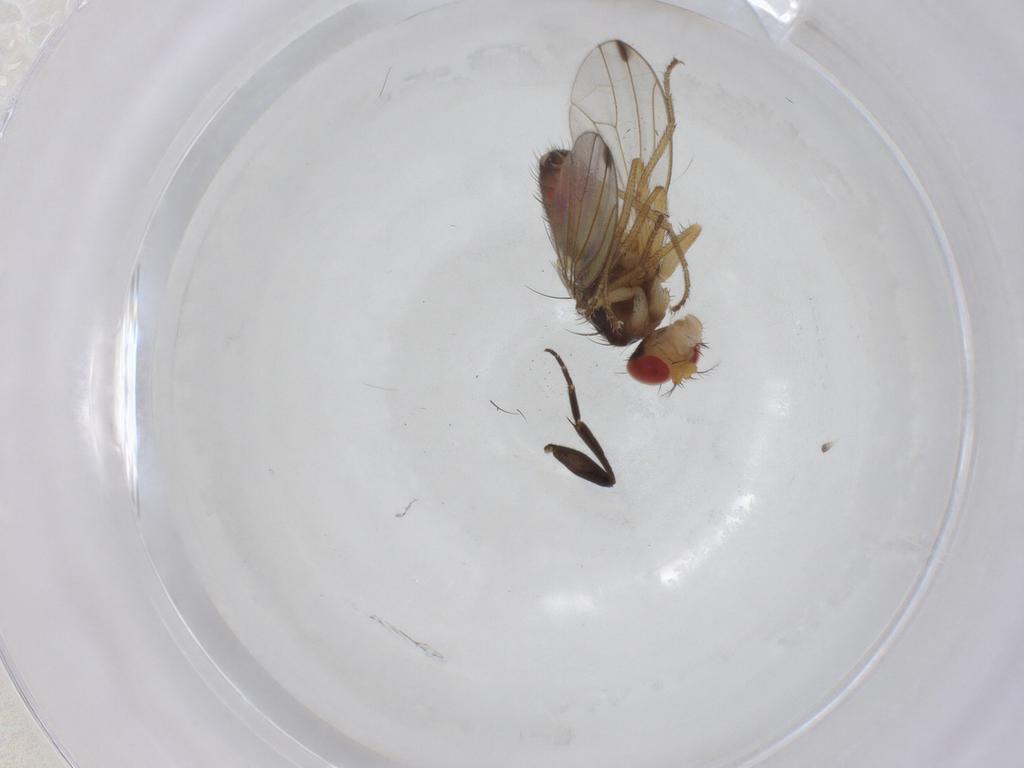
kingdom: Animalia
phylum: Arthropoda
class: Insecta
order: Diptera
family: Drosophilidae
